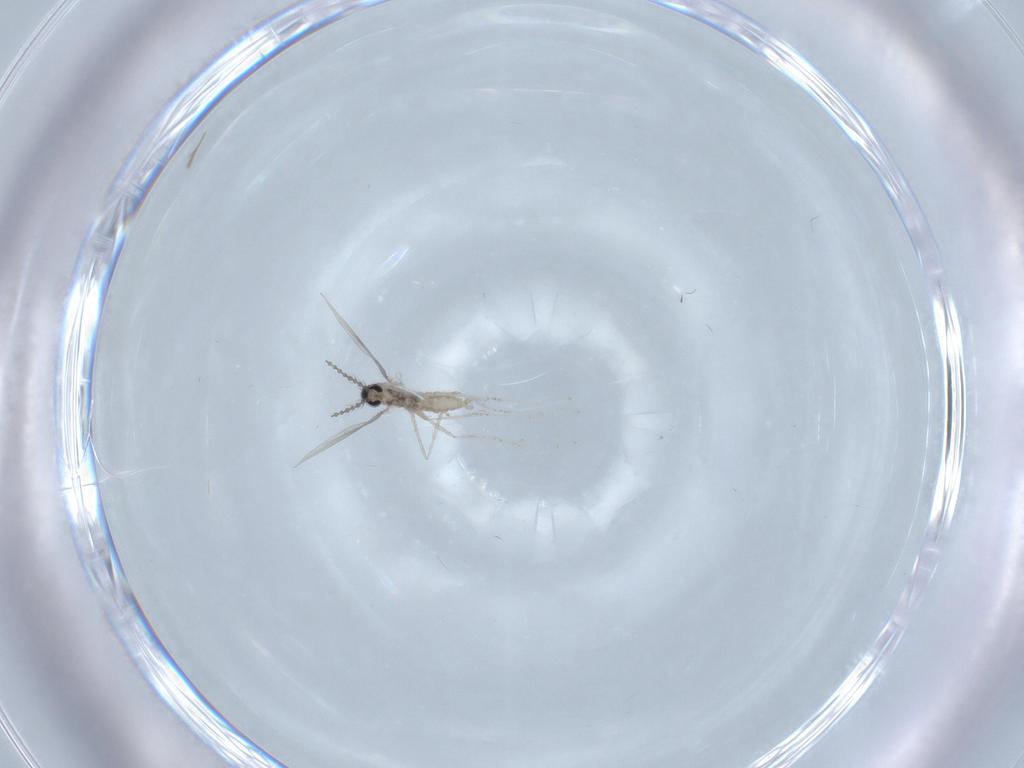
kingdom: Animalia
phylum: Arthropoda
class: Insecta
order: Diptera
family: Cecidomyiidae
